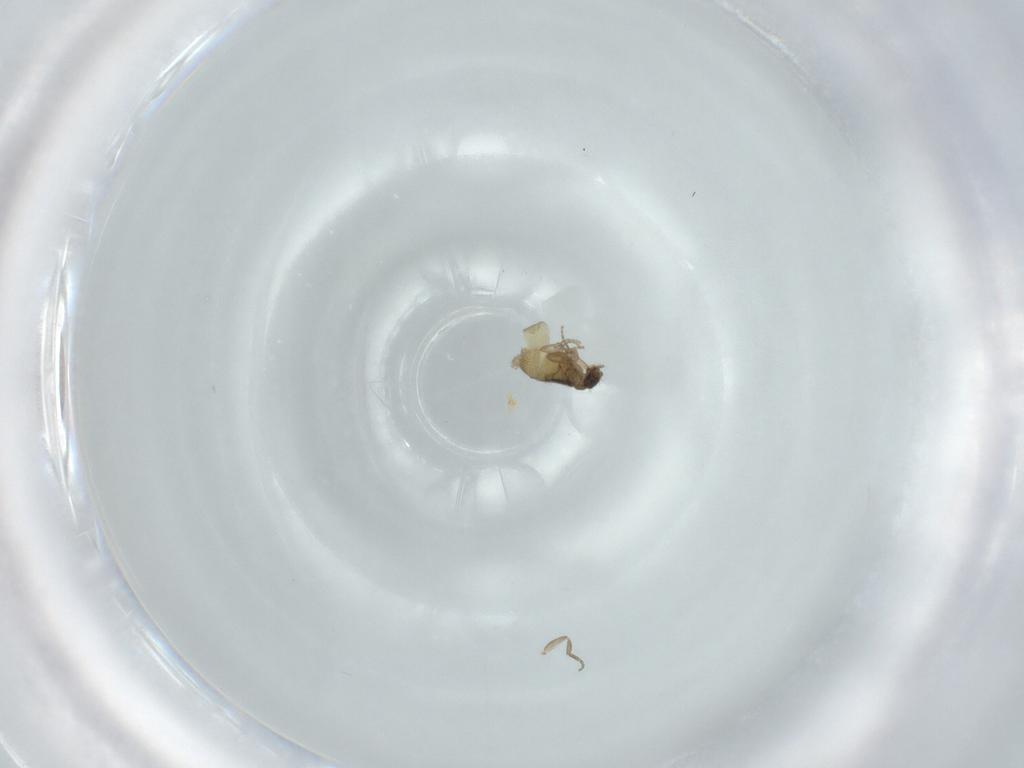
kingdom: Animalia
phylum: Arthropoda
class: Insecta
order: Diptera
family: Phoridae
